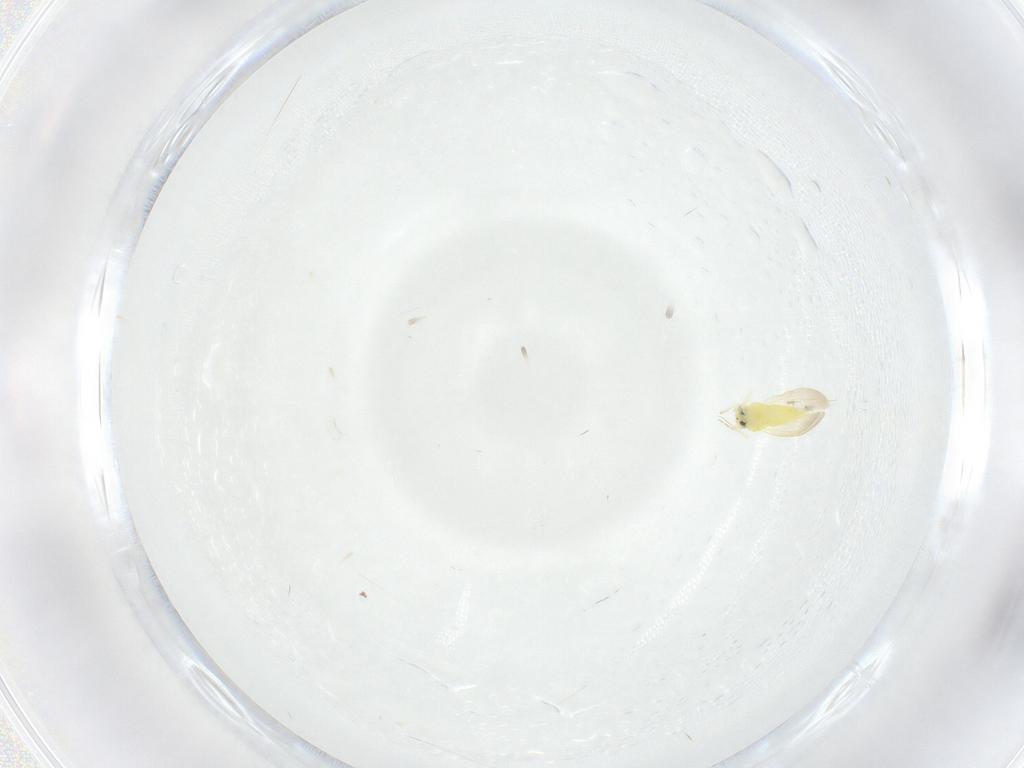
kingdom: Animalia
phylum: Arthropoda
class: Insecta
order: Hemiptera
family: Aleyrodidae
